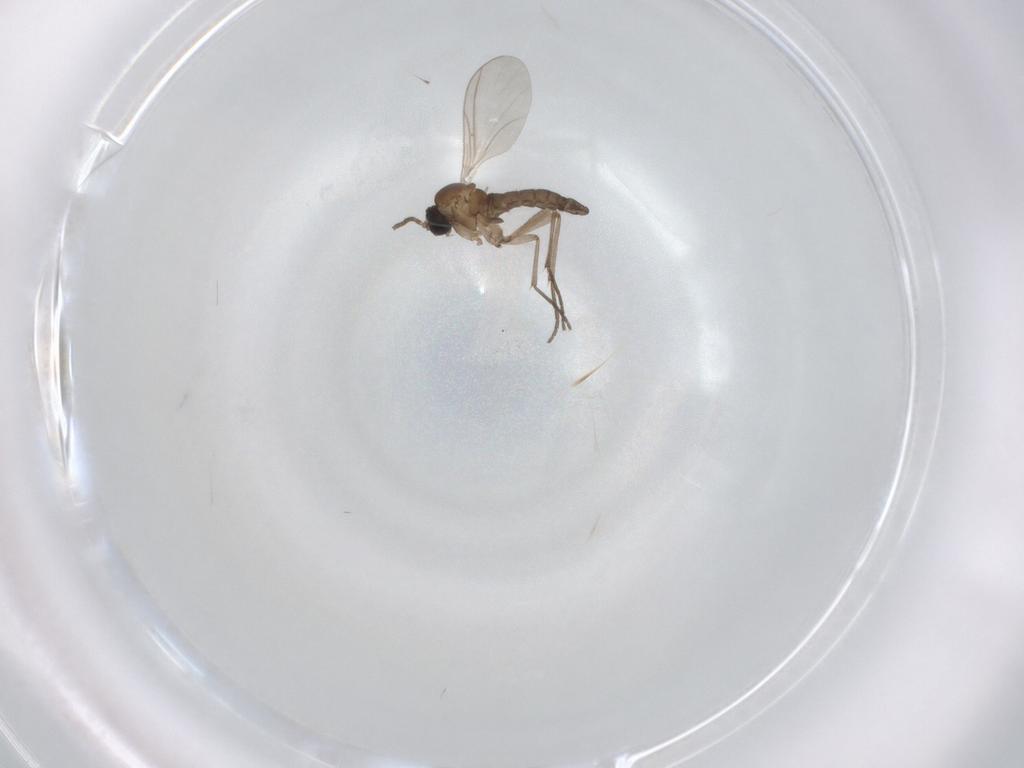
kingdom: Animalia
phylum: Arthropoda
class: Insecta
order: Diptera
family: Sciaridae
